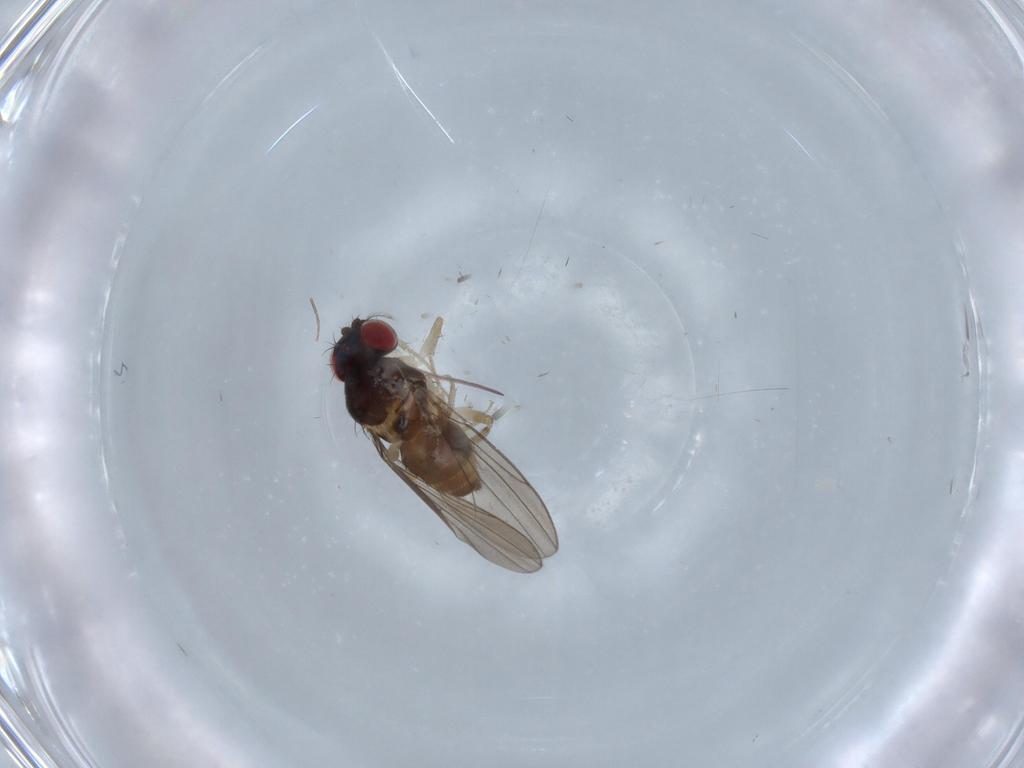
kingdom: Animalia
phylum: Arthropoda
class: Insecta
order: Diptera
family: Drosophilidae
